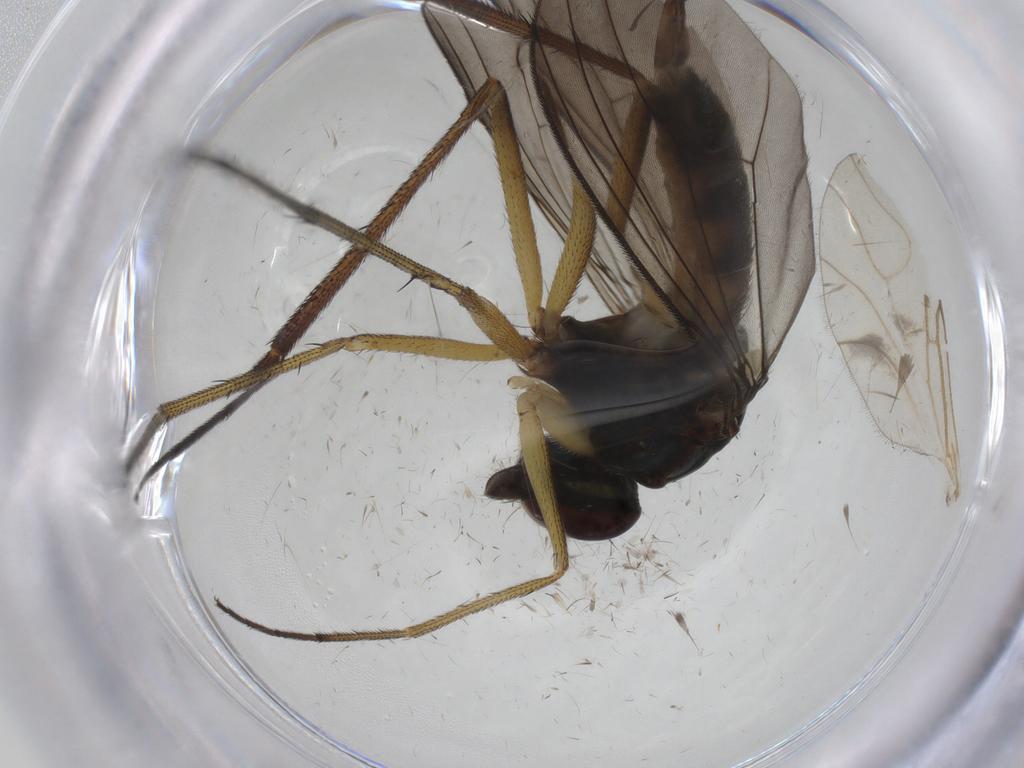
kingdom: Animalia
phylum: Arthropoda
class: Insecta
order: Diptera
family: Dolichopodidae
